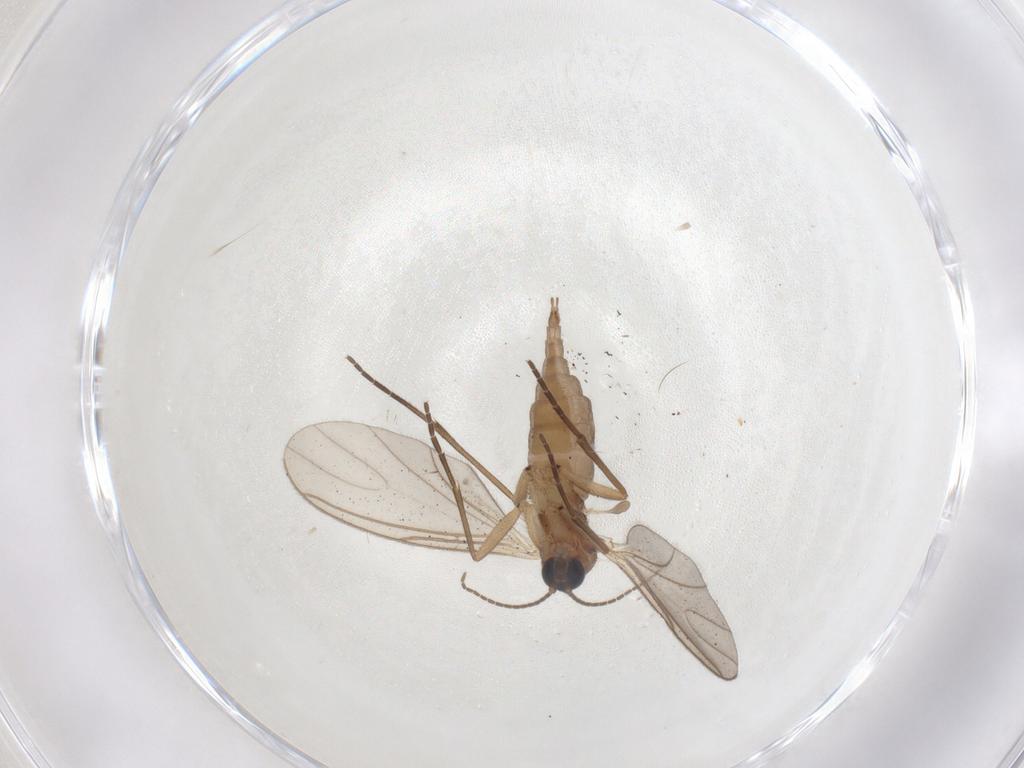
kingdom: Animalia
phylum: Arthropoda
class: Insecta
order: Diptera
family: Sciaridae
